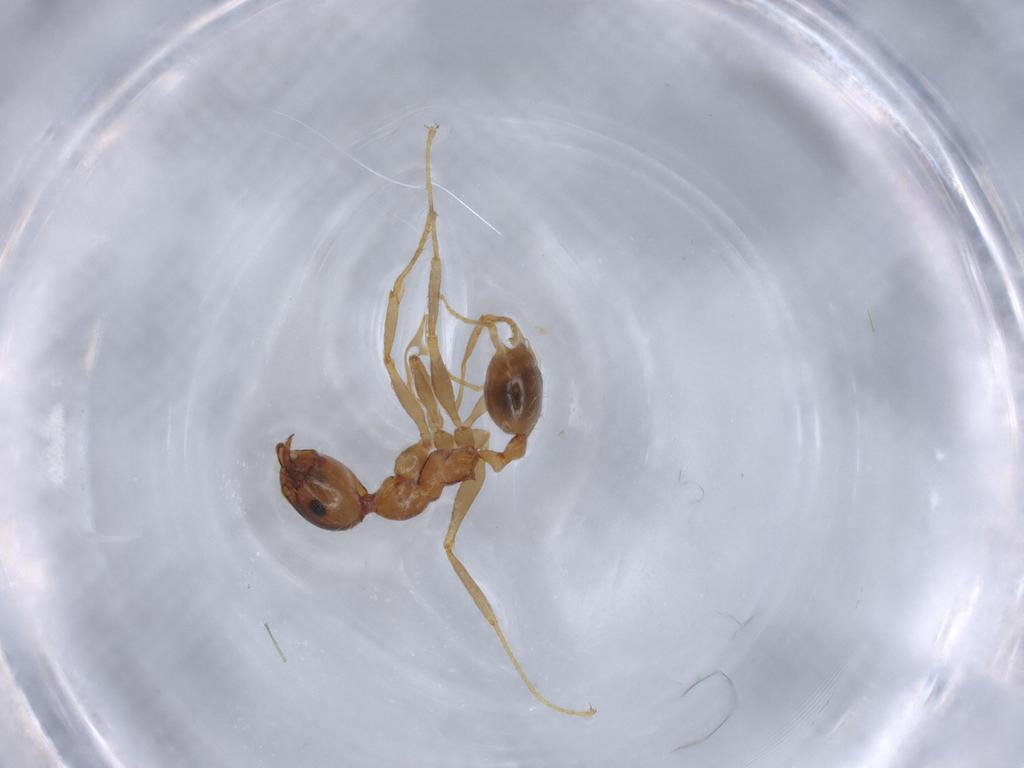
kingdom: Animalia
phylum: Arthropoda
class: Insecta
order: Hymenoptera
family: Formicidae
